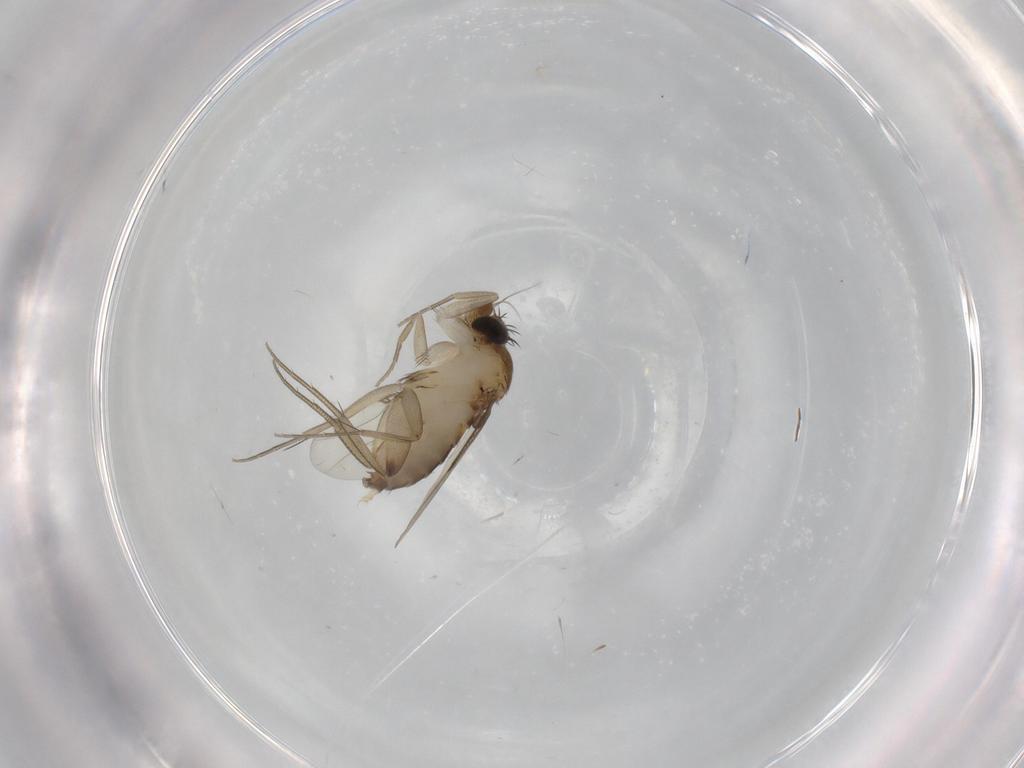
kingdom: Animalia
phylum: Arthropoda
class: Insecta
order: Diptera
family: Phoridae
